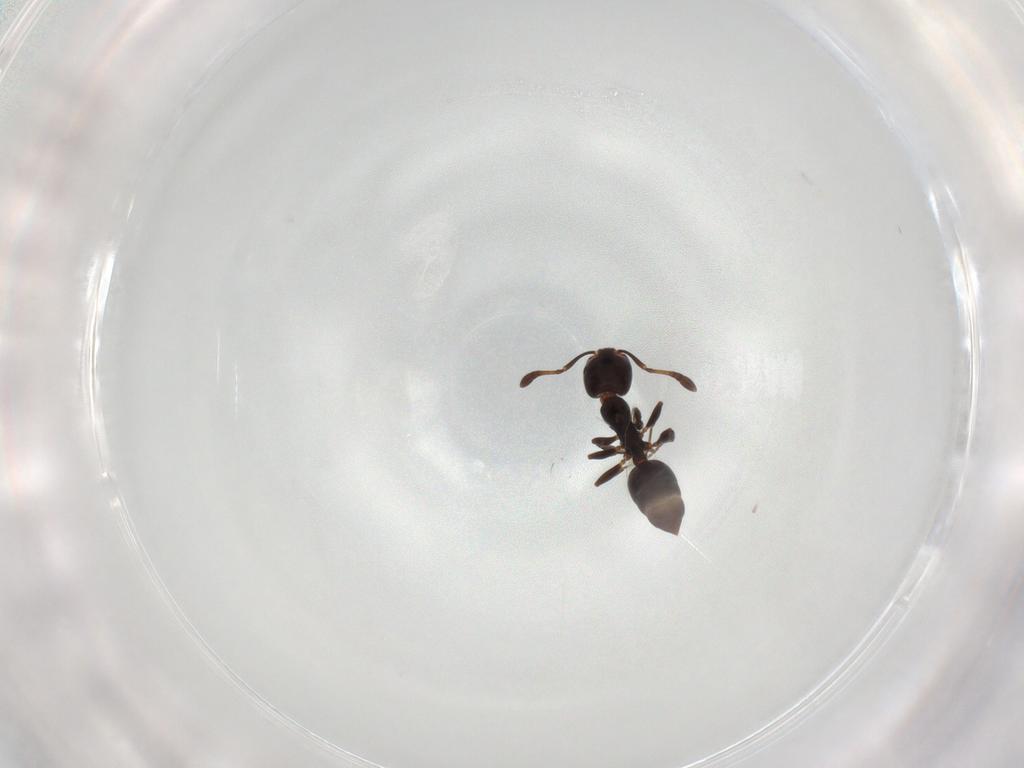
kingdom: Animalia
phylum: Arthropoda
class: Insecta
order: Hymenoptera
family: Formicidae
